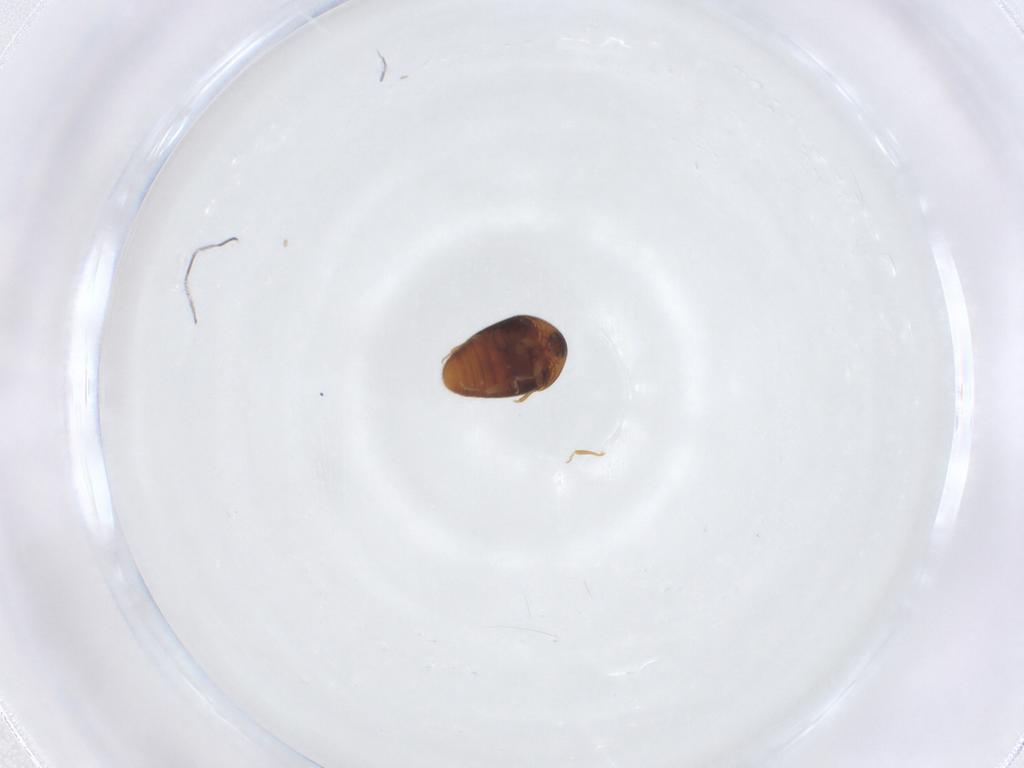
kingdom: Animalia
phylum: Arthropoda
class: Insecta
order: Coleoptera
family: Corylophidae
